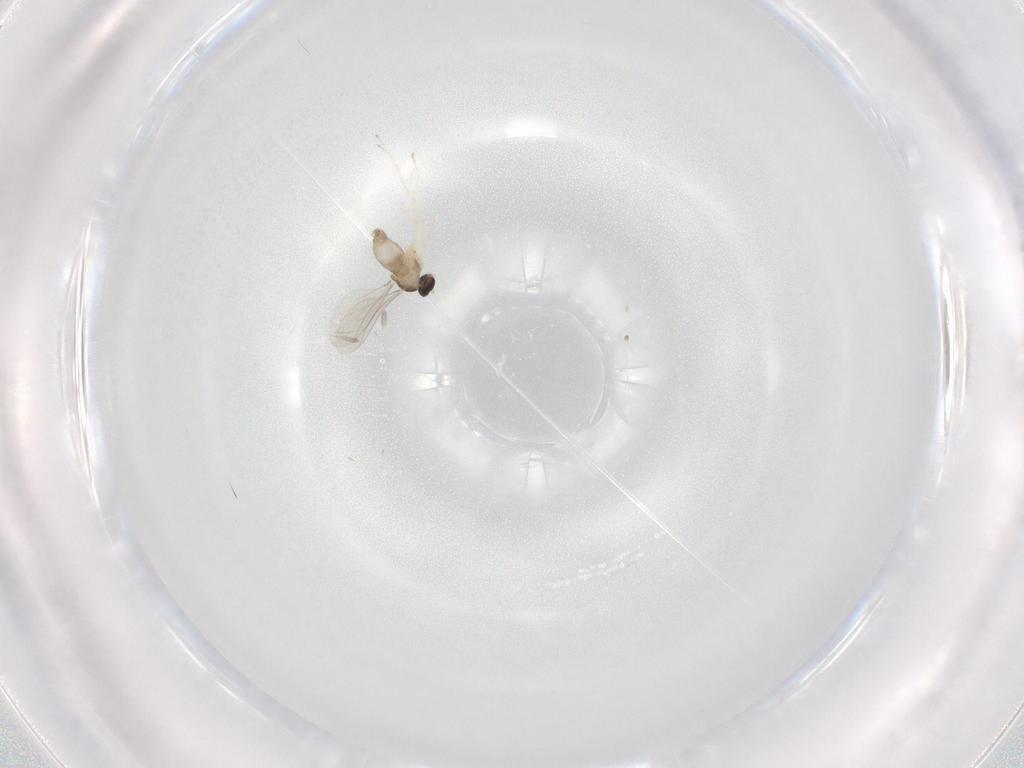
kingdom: Animalia
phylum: Arthropoda
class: Insecta
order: Diptera
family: Cecidomyiidae
